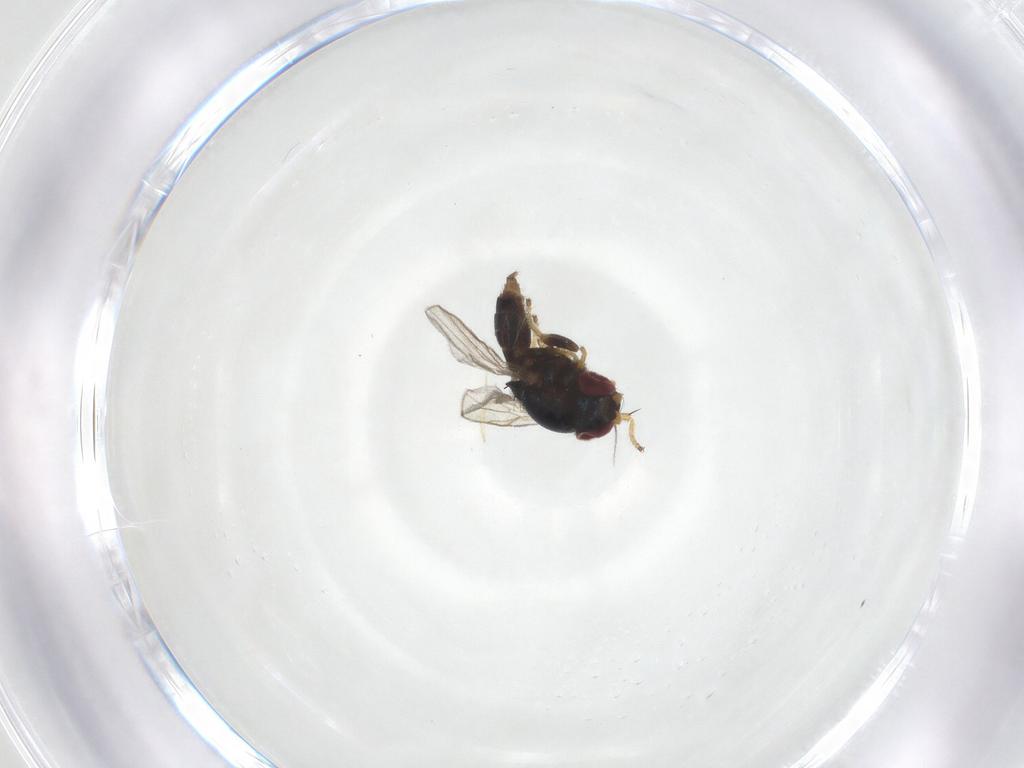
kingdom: Animalia
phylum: Arthropoda
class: Insecta
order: Diptera
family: Chloropidae
